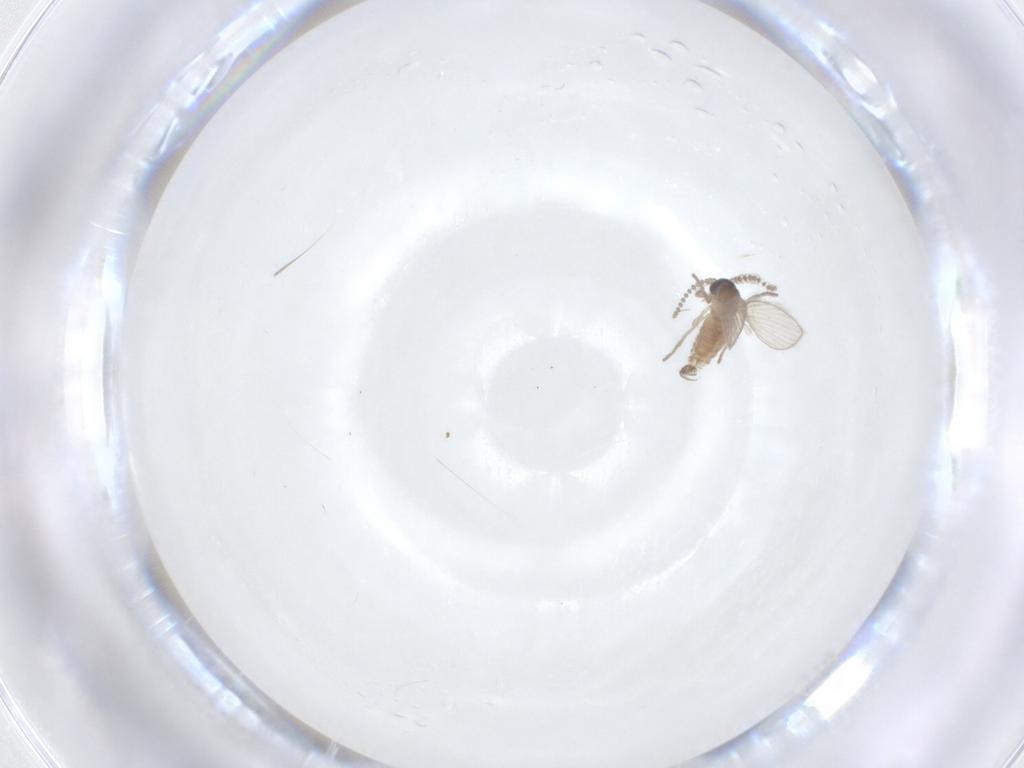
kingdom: Animalia
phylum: Arthropoda
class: Insecta
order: Diptera
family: Psychodidae
